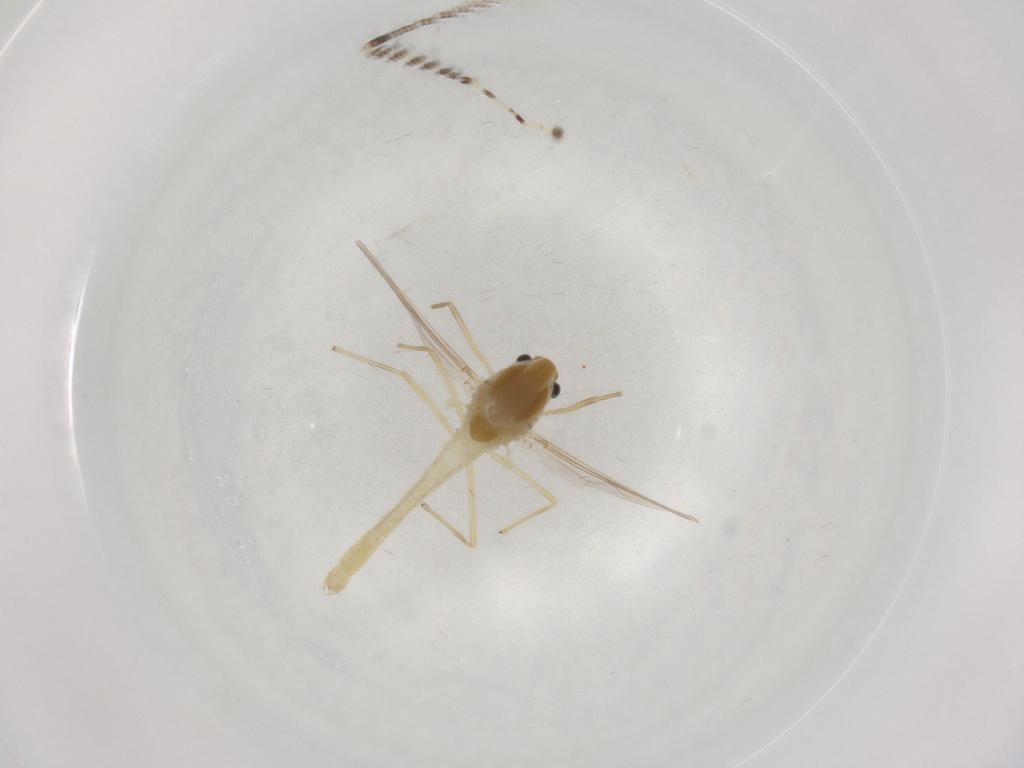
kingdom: Animalia
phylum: Arthropoda
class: Insecta
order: Diptera
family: Chironomidae
